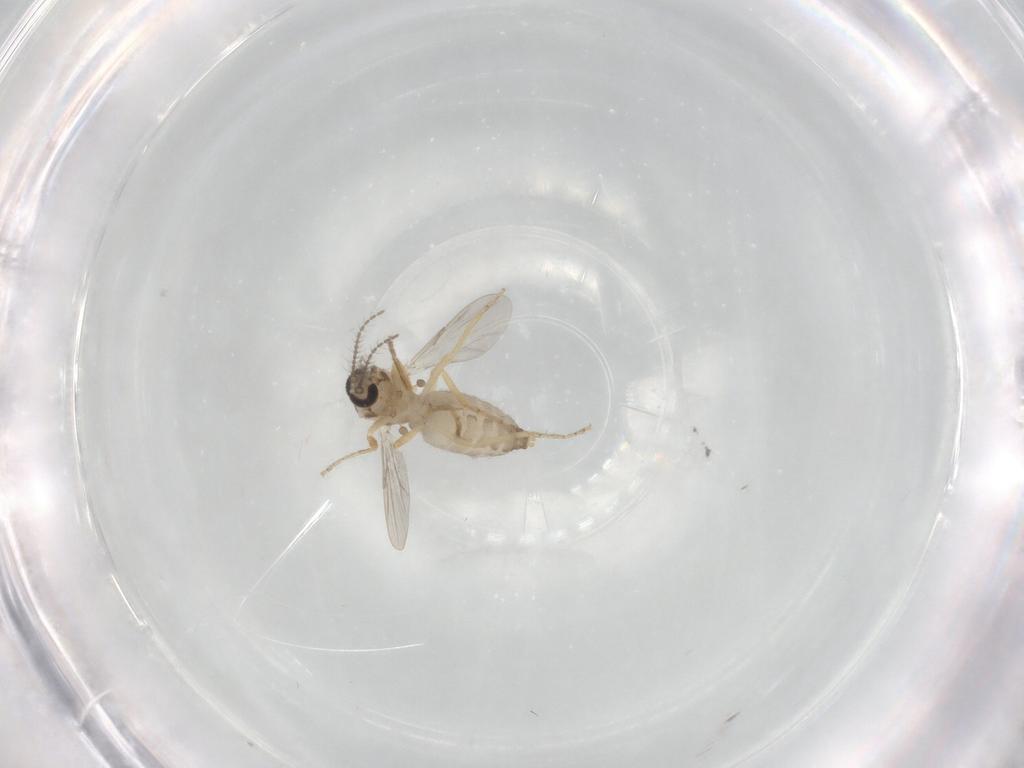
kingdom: Animalia
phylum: Arthropoda
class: Insecta
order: Diptera
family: Ceratopogonidae
